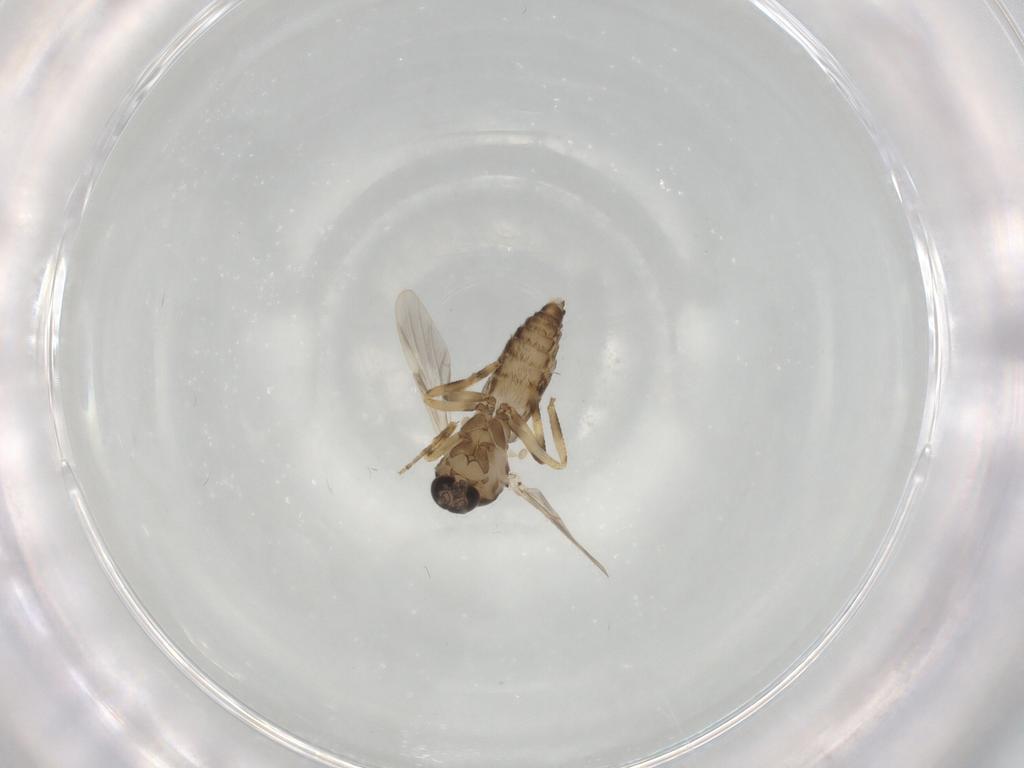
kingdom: Animalia
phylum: Arthropoda
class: Insecta
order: Diptera
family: Ceratopogonidae
